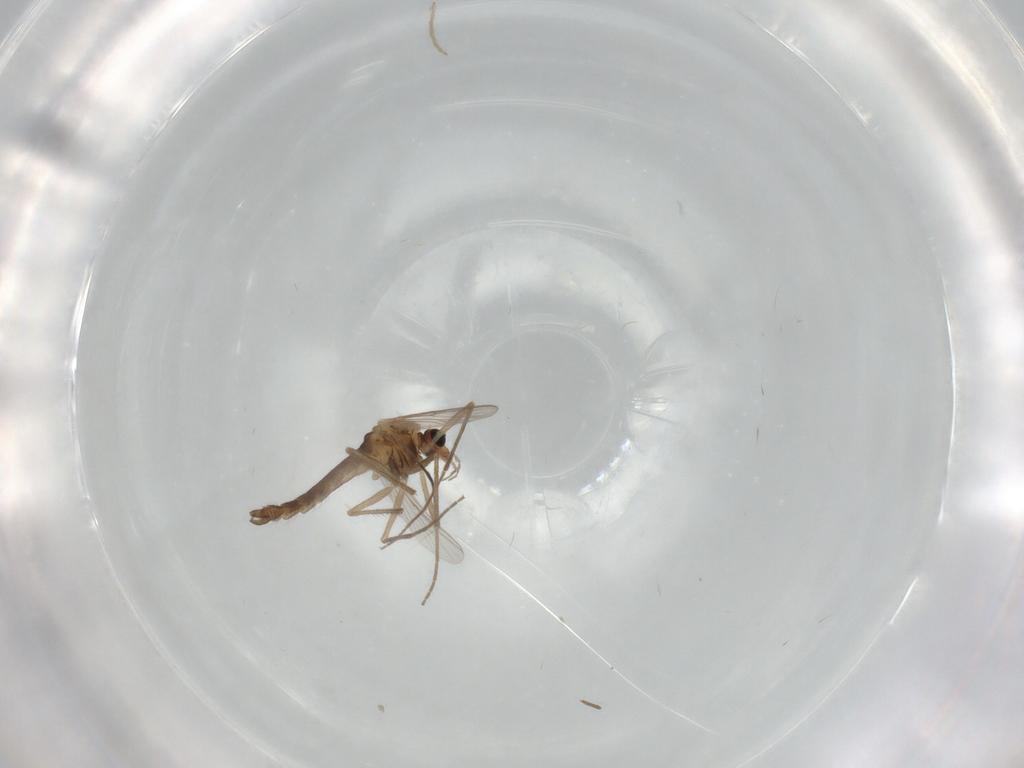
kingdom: Animalia
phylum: Arthropoda
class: Insecta
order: Diptera
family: Chironomidae
